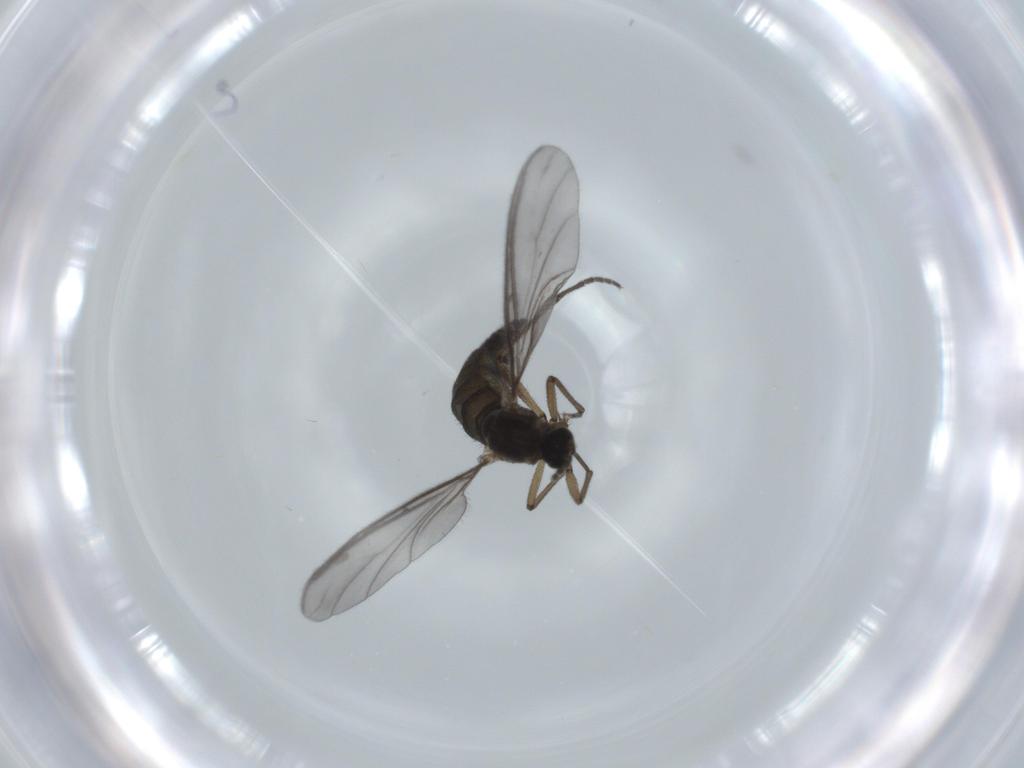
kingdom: Animalia
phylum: Arthropoda
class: Insecta
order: Diptera
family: Sciaridae
